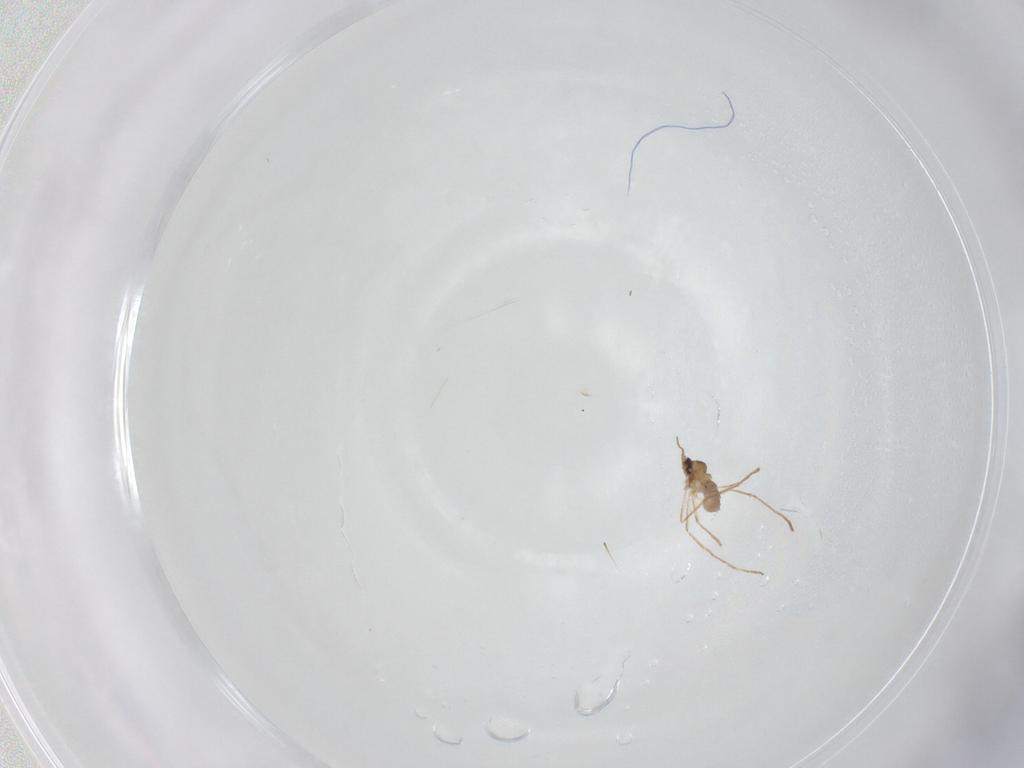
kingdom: Animalia
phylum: Arthropoda
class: Insecta
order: Diptera
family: Cecidomyiidae
